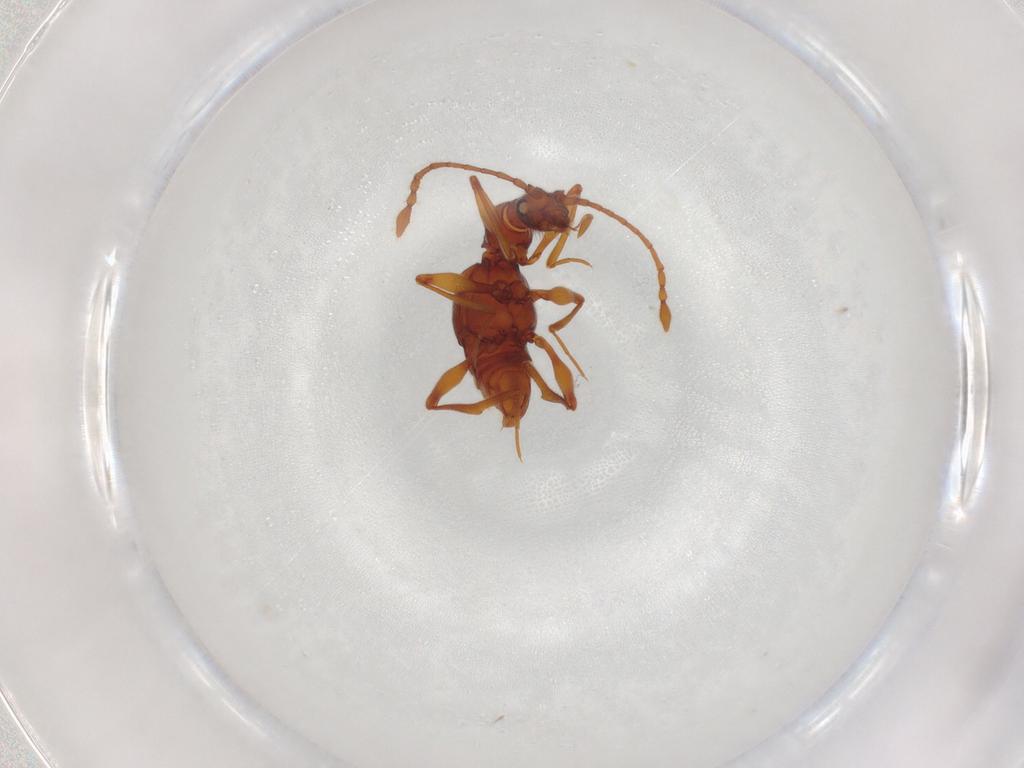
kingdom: Animalia
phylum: Arthropoda
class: Insecta
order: Coleoptera
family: Staphylinidae
